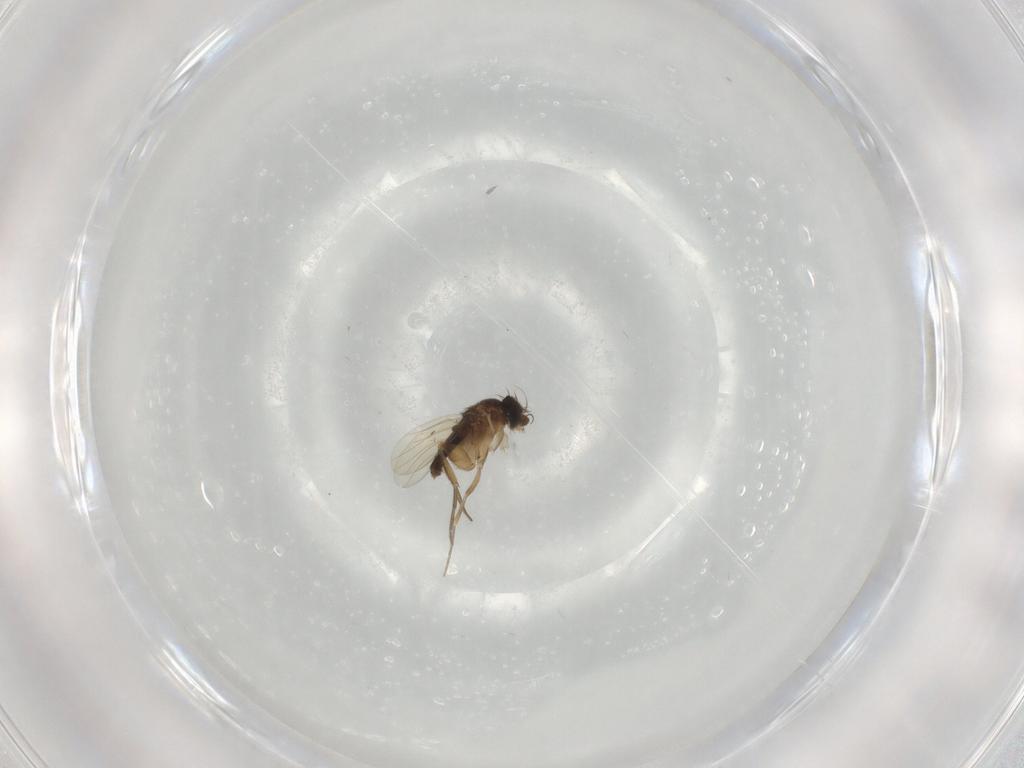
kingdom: Animalia
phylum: Arthropoda
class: Insecta
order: Diptera
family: Phoridae
